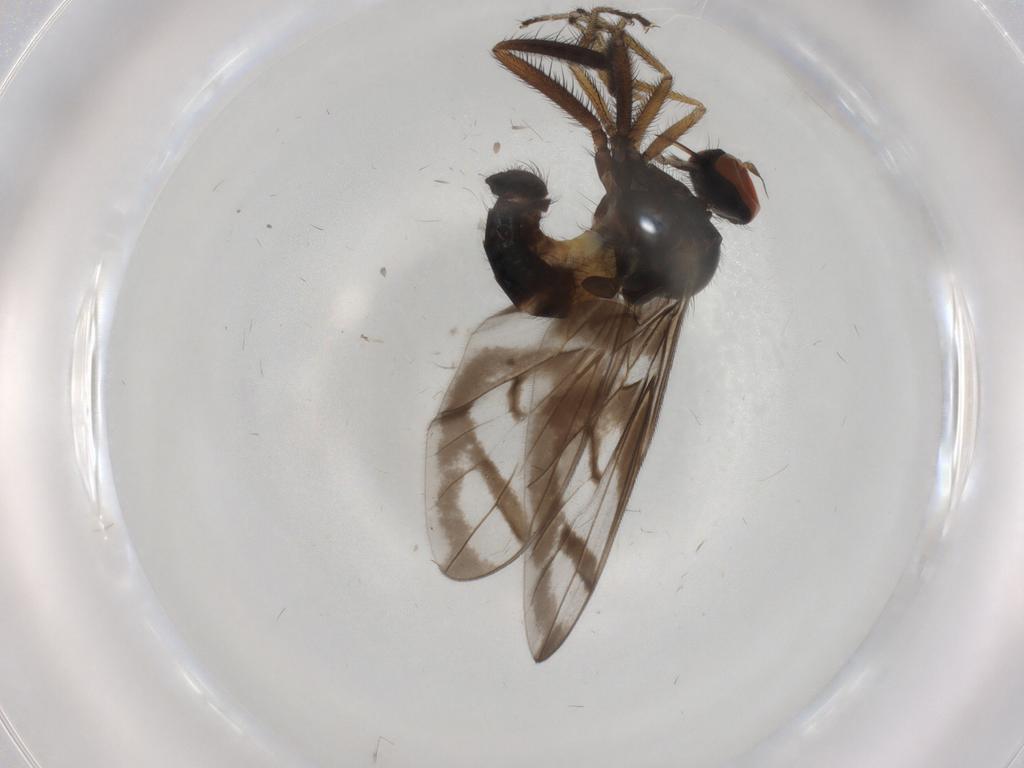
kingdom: Animalia
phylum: Arthropoda
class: Insecta
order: Diptera
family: Empididae
